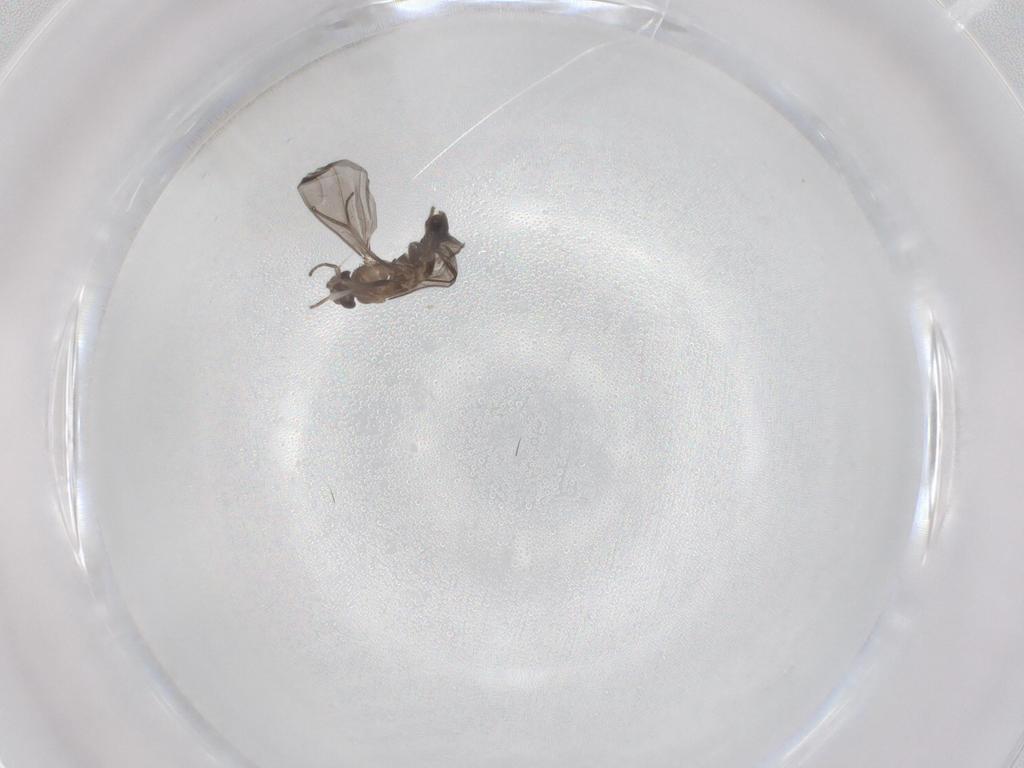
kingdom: Animalia
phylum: Arthropoda
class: Insecta
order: Diptera
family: Phoridae
